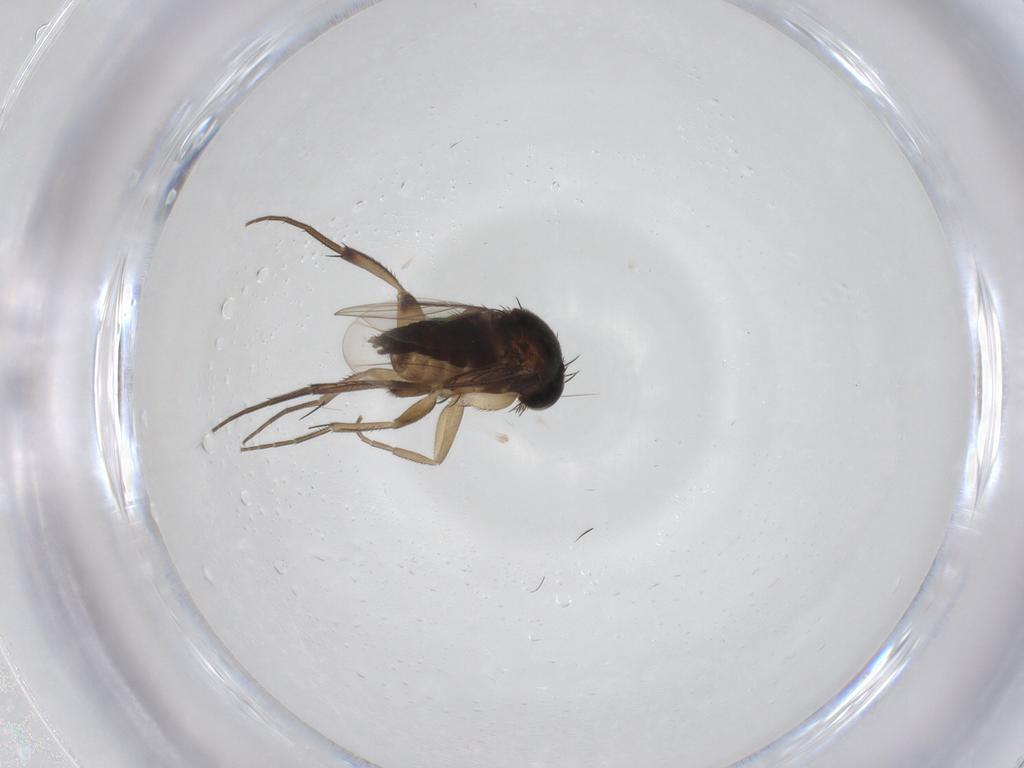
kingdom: Animalia
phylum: Arthropoda
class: Insecta
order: Diptera
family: Phoridae
